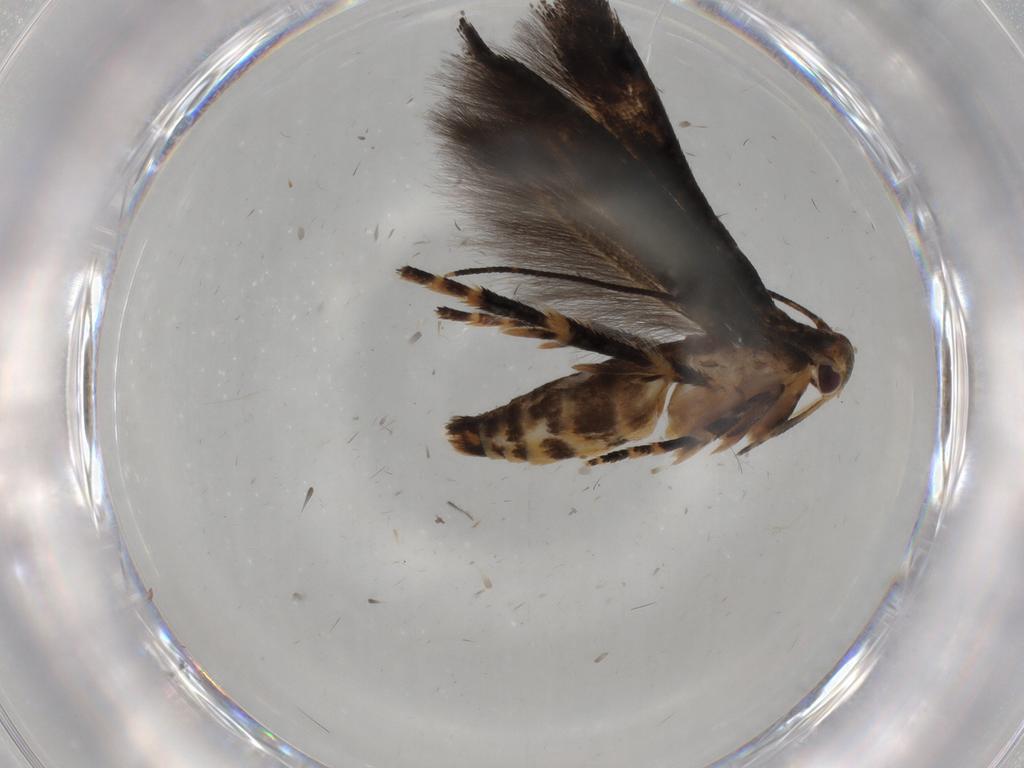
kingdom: Animalia
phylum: Arthropoda
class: Insecta
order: Lepidoptera
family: Momphidae
